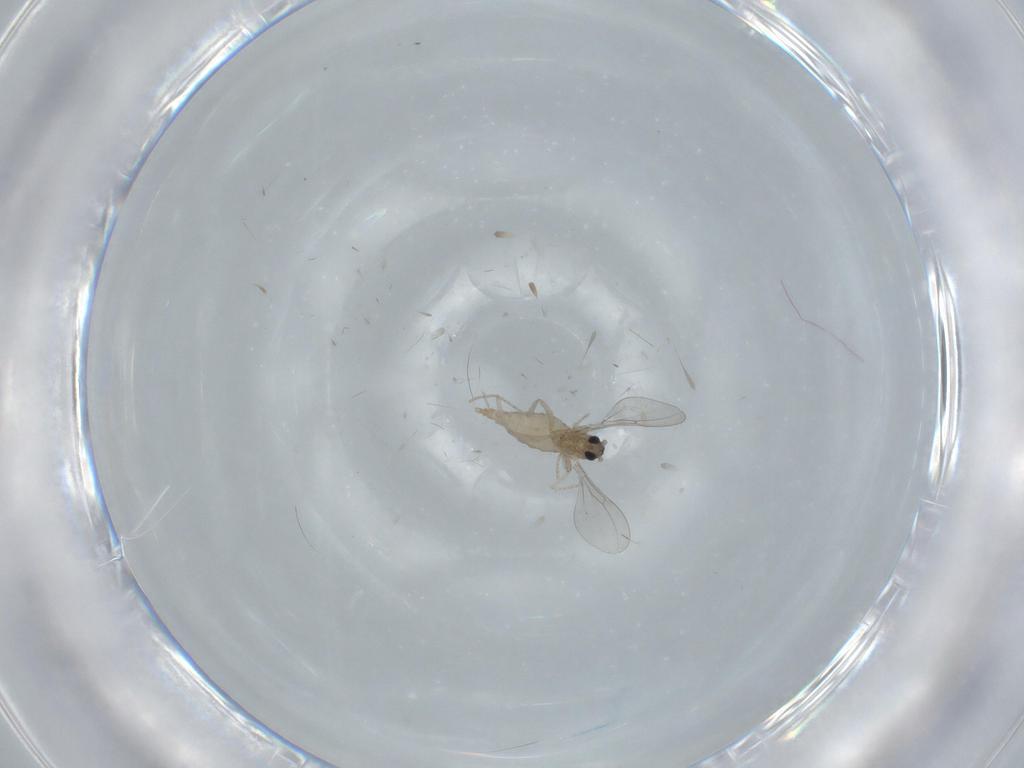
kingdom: Animalia
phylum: Arthropoda
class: Insecta
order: Diptera
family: Cecidomyiidae
